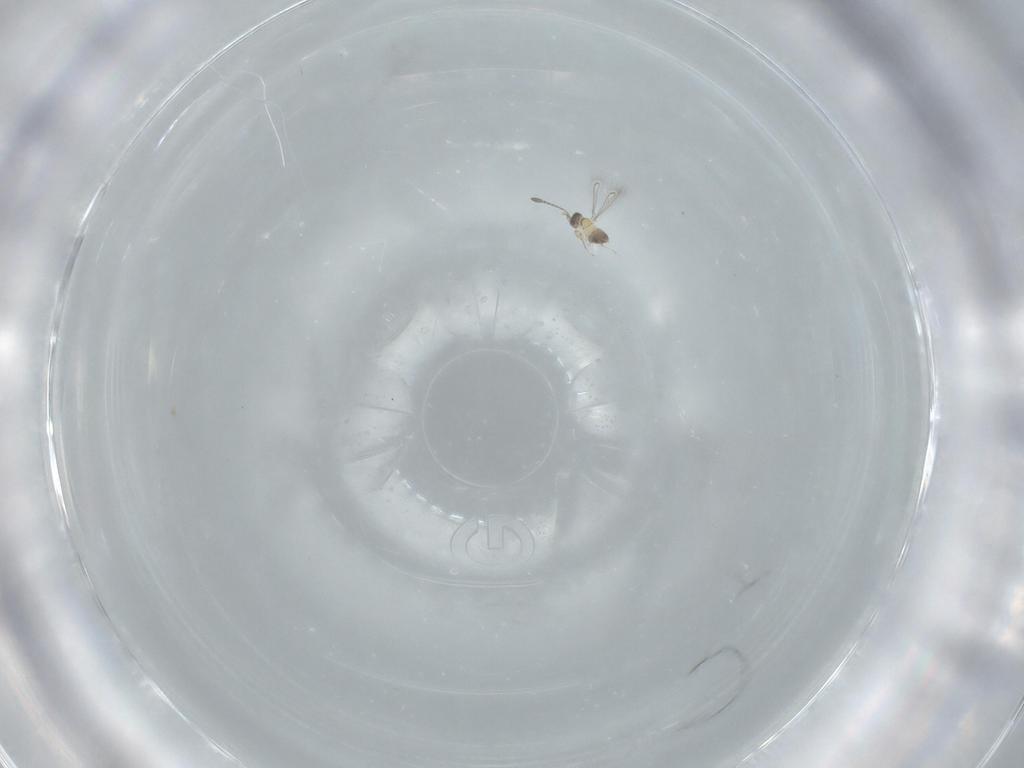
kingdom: Animalia
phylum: Arthropoda
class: Insecta
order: Hymenoptera
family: Mymaridae
